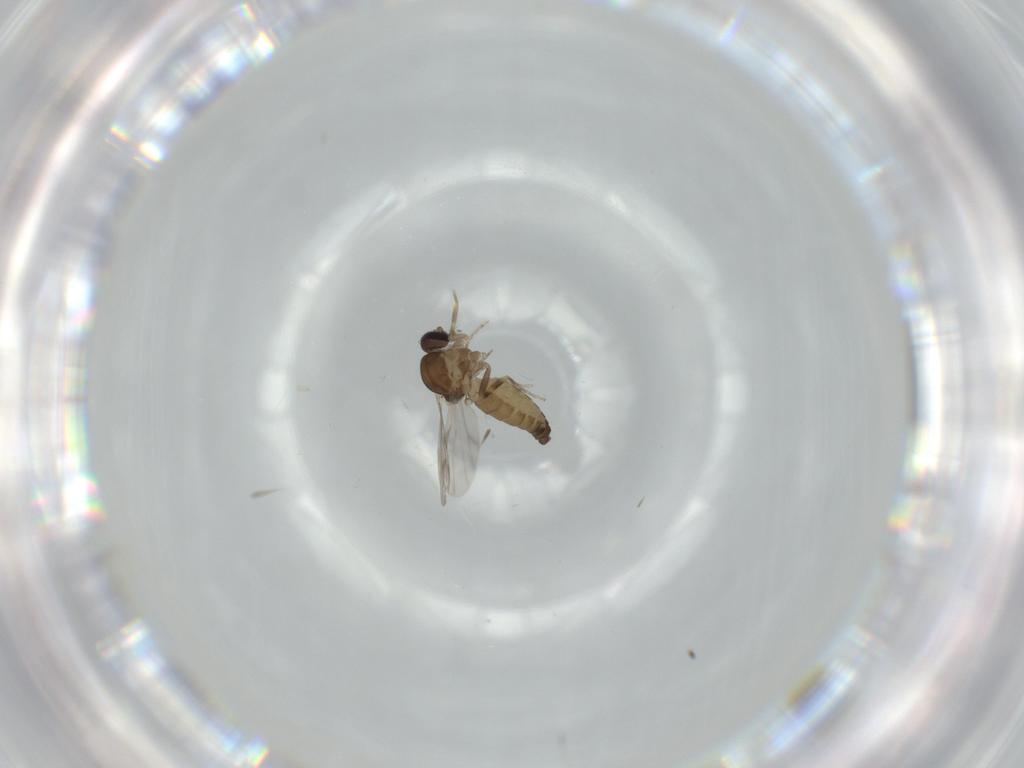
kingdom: Animalia
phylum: Arthropoda
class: Insecta
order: Diptera
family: Ceratopogonidae
